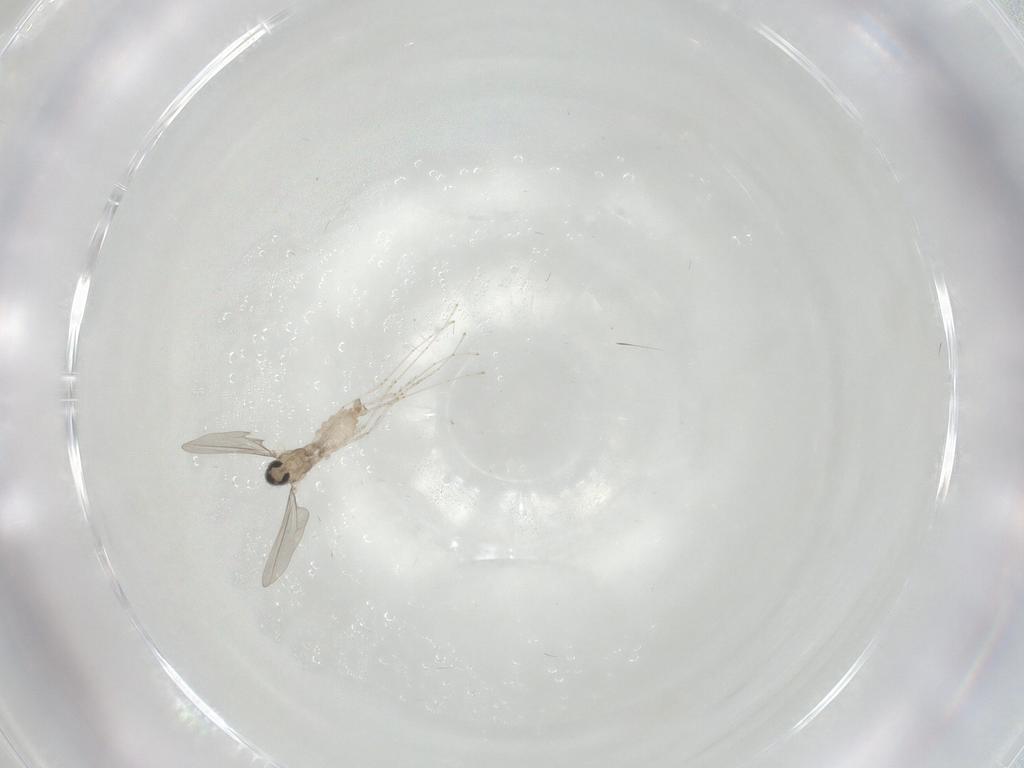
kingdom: Animalia
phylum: Arthropoda
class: Insecta
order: Diptera
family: Cecidomyiidae
